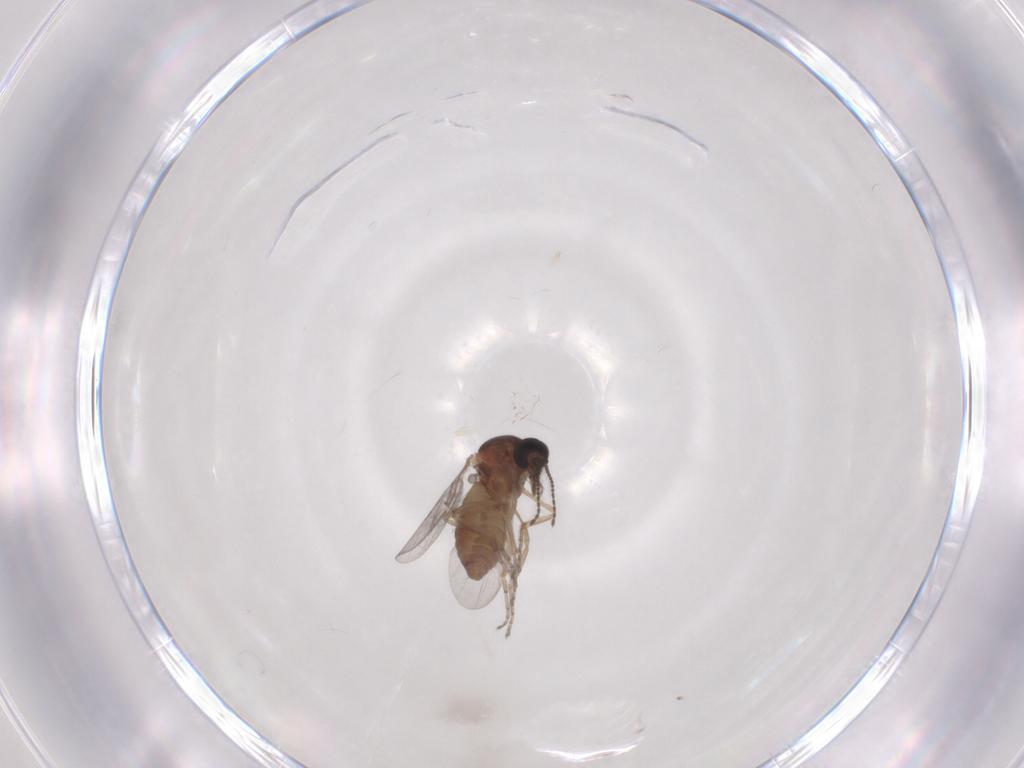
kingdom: Animalia
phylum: Arthropoda
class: Insecta
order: Diptera
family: Ceratopogonidae
